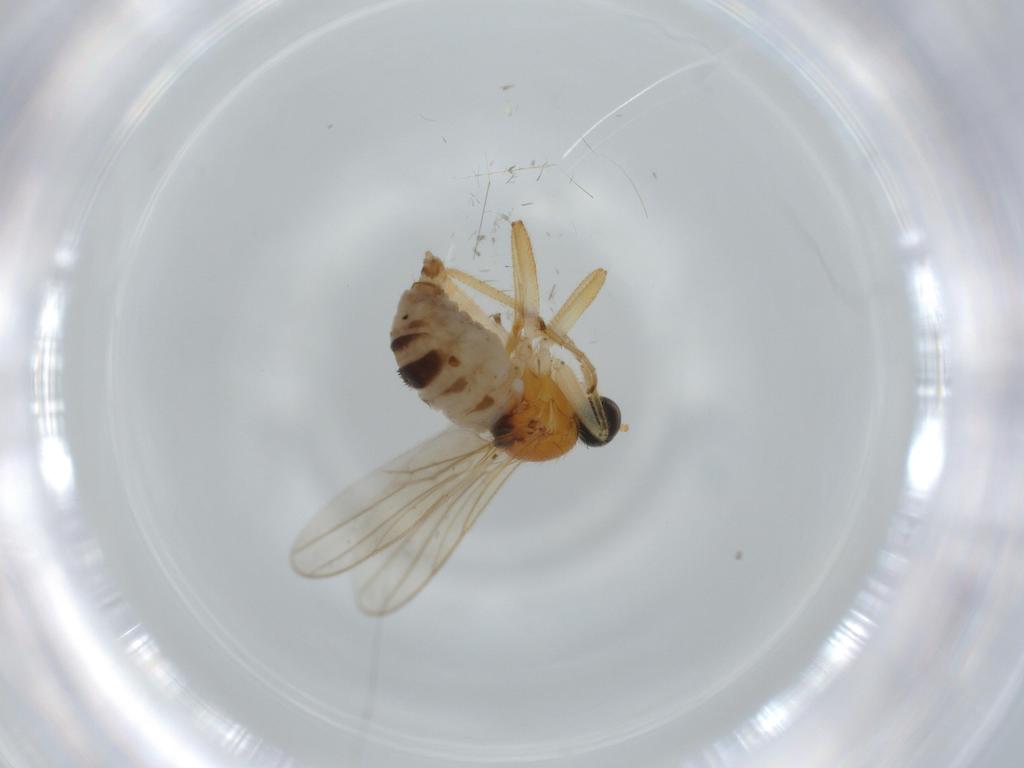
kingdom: Animalia
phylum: Arthropoda
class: Insecta
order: Diptera
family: Hybotidae
